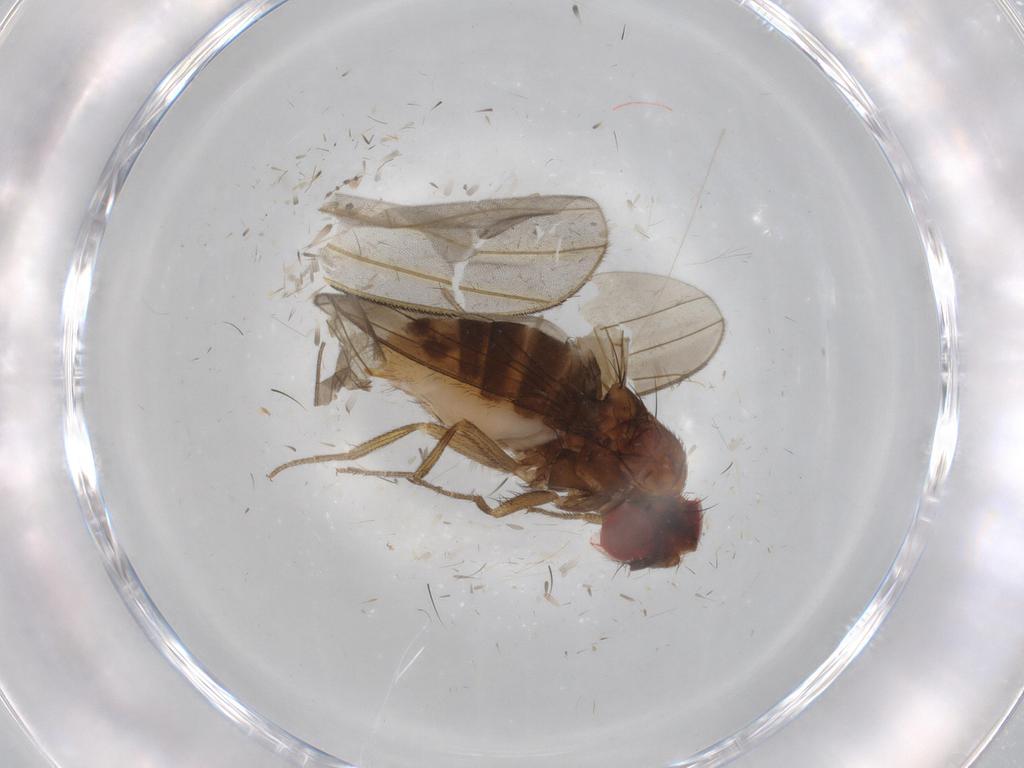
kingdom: Animalia
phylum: Arthropoda
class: Insecta
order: Diptera
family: Drosophilidae
